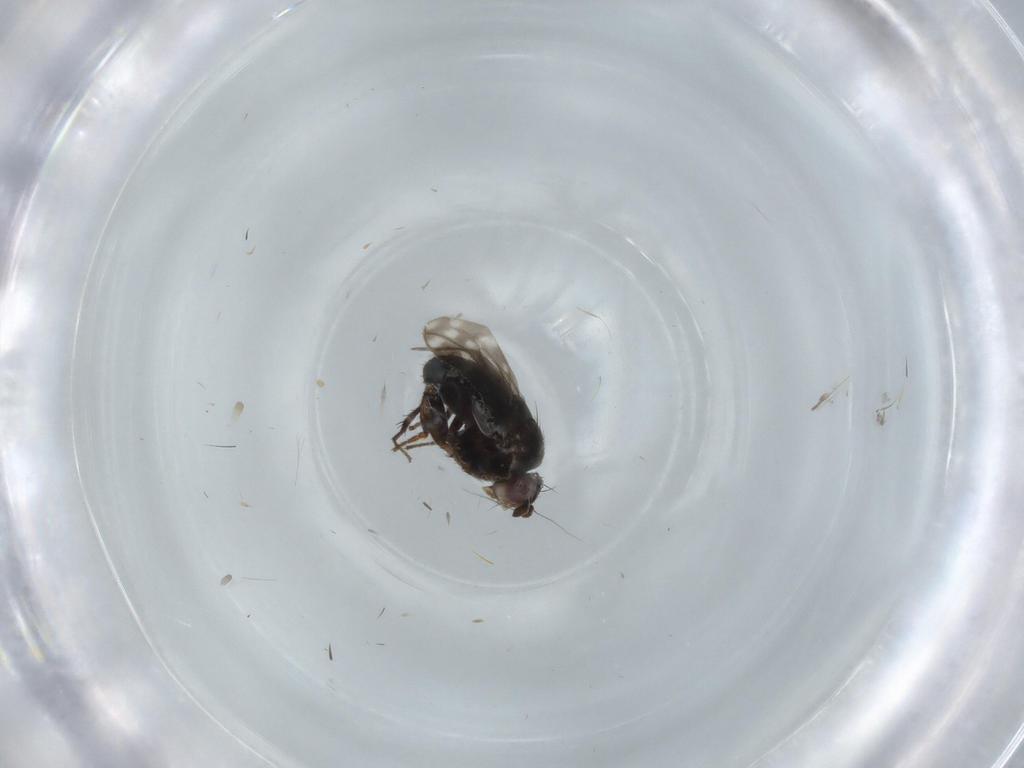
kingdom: Animalia
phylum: Arthropoda
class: Insecta
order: Diptera
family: Sphaeroceridae
